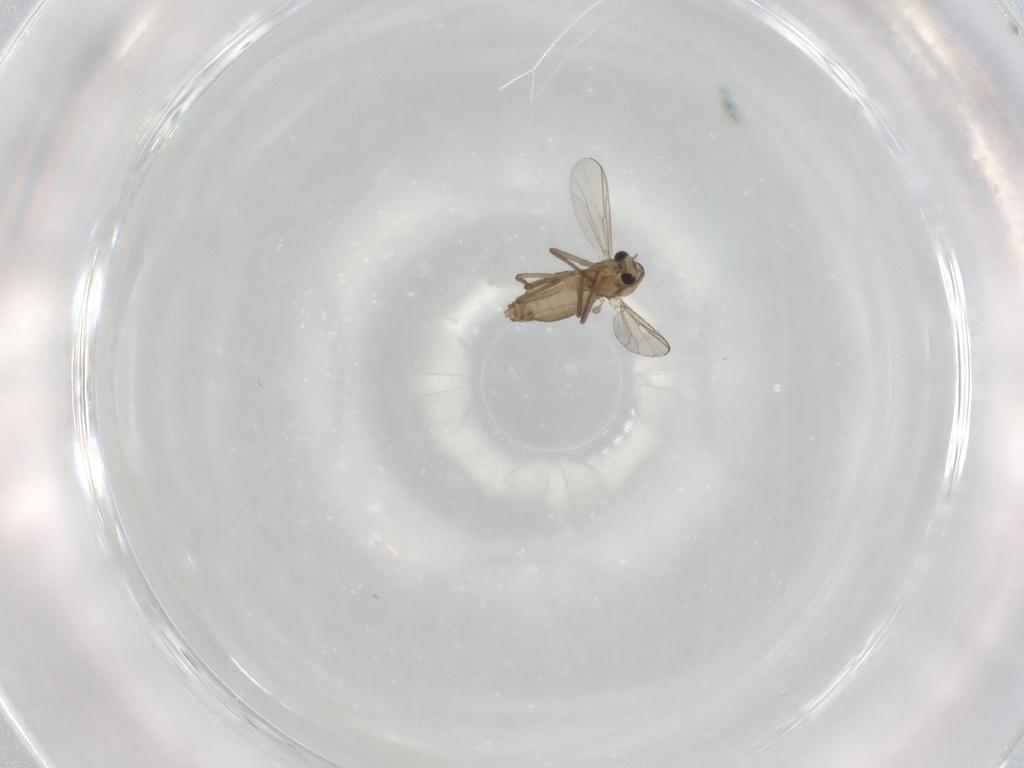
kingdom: Animalia
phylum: Arthropoda
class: Insecta
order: Diptera
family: Chironomidae
